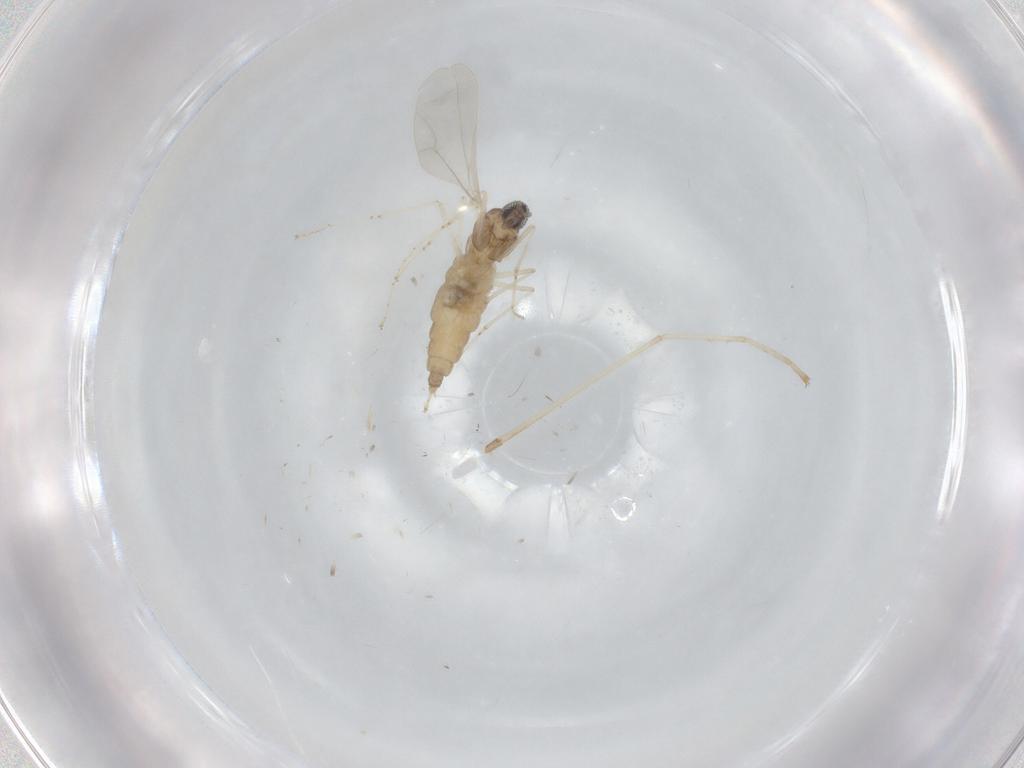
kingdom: Animalia
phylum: Arthropoda
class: Insecta
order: Diptera
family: Cecidomyiidae
